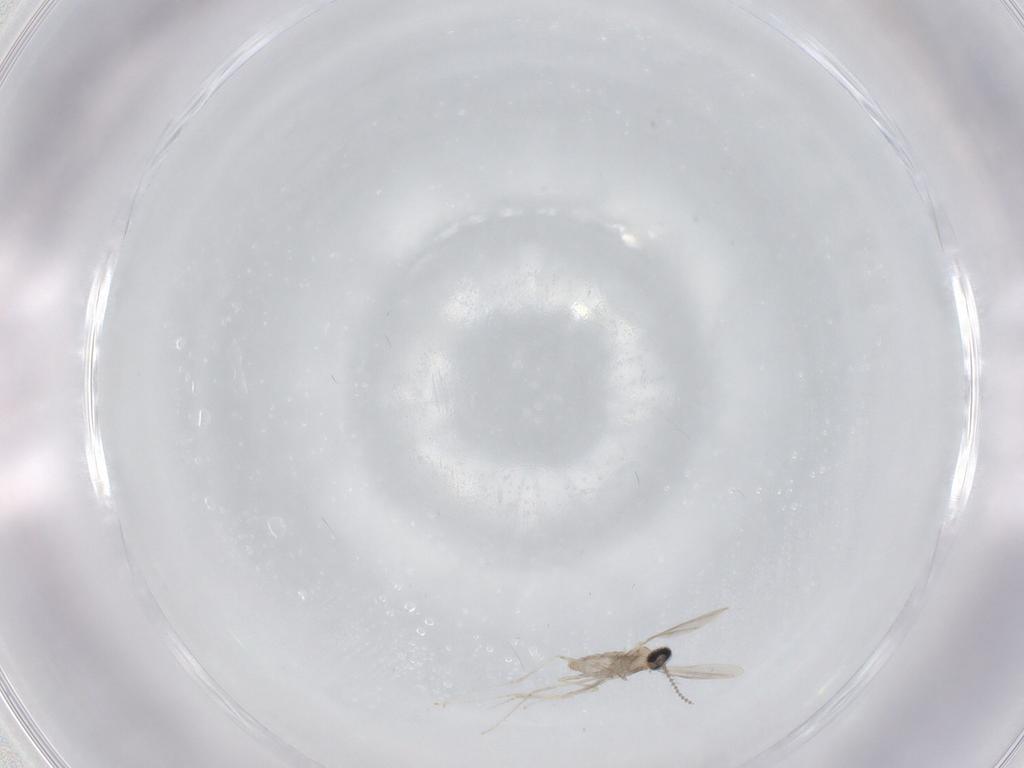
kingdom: Animalia
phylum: Arthropoda
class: Insecta
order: Diptera
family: Cecidomyiidae
